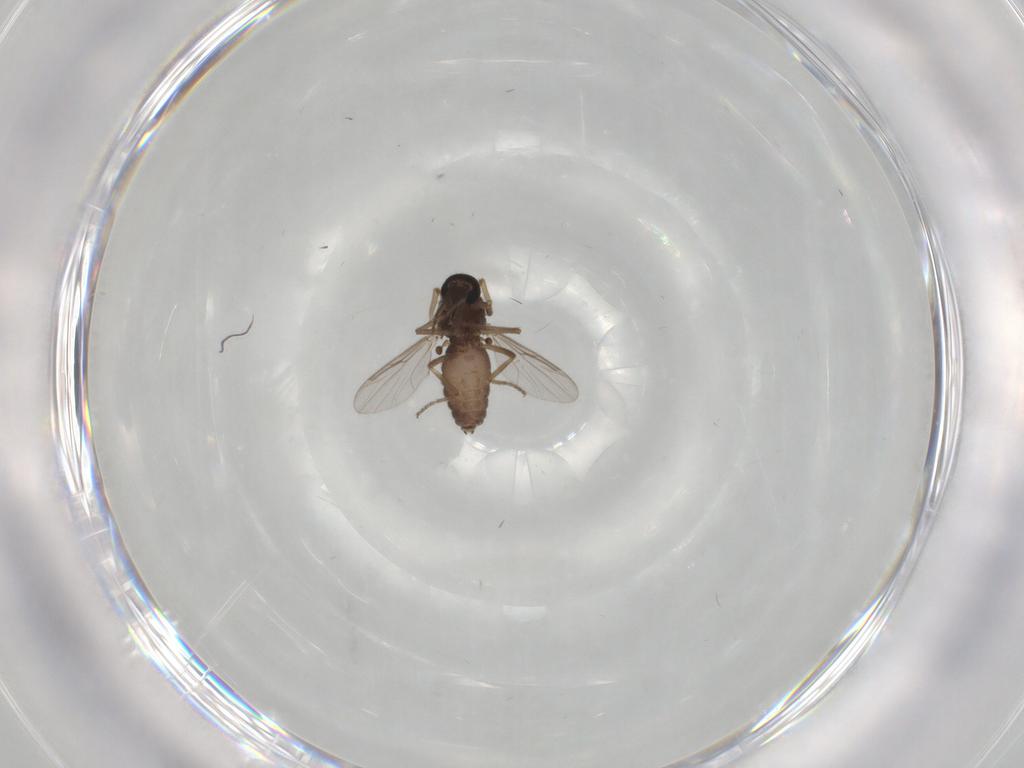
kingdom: Animalia
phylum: Arthropoda
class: Insecta
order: Diptera
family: Ceratopogonidae
